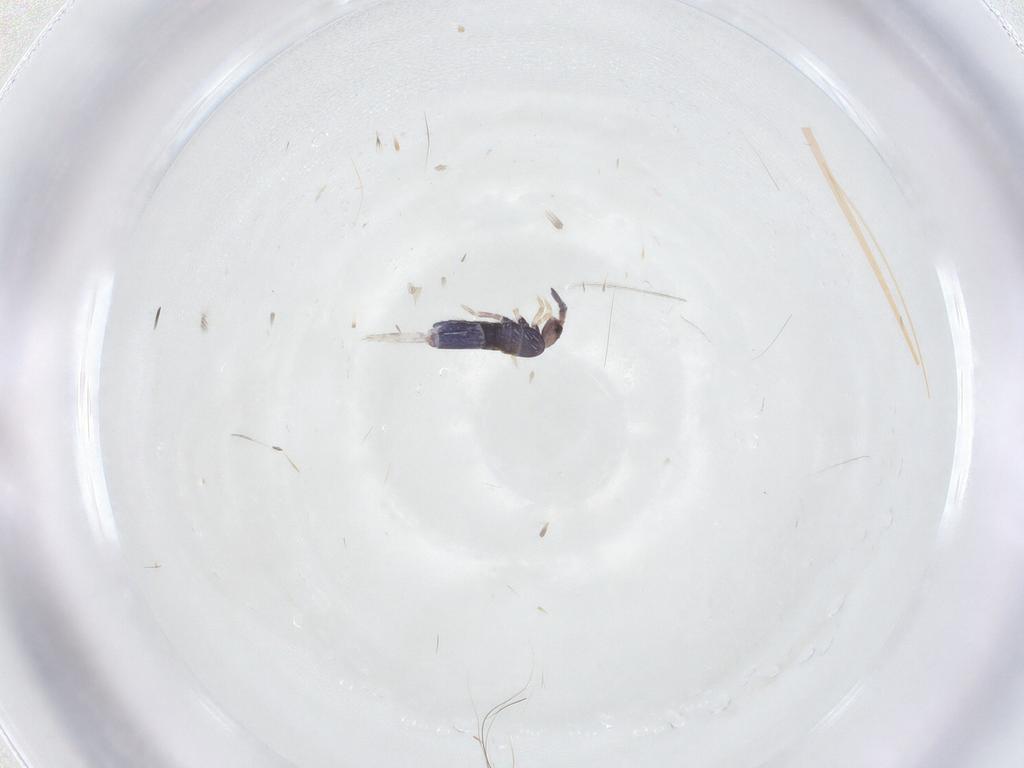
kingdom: Animalia
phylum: Arthropoda
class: Collembola
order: Entomobryomorpha
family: Entomobryidae
